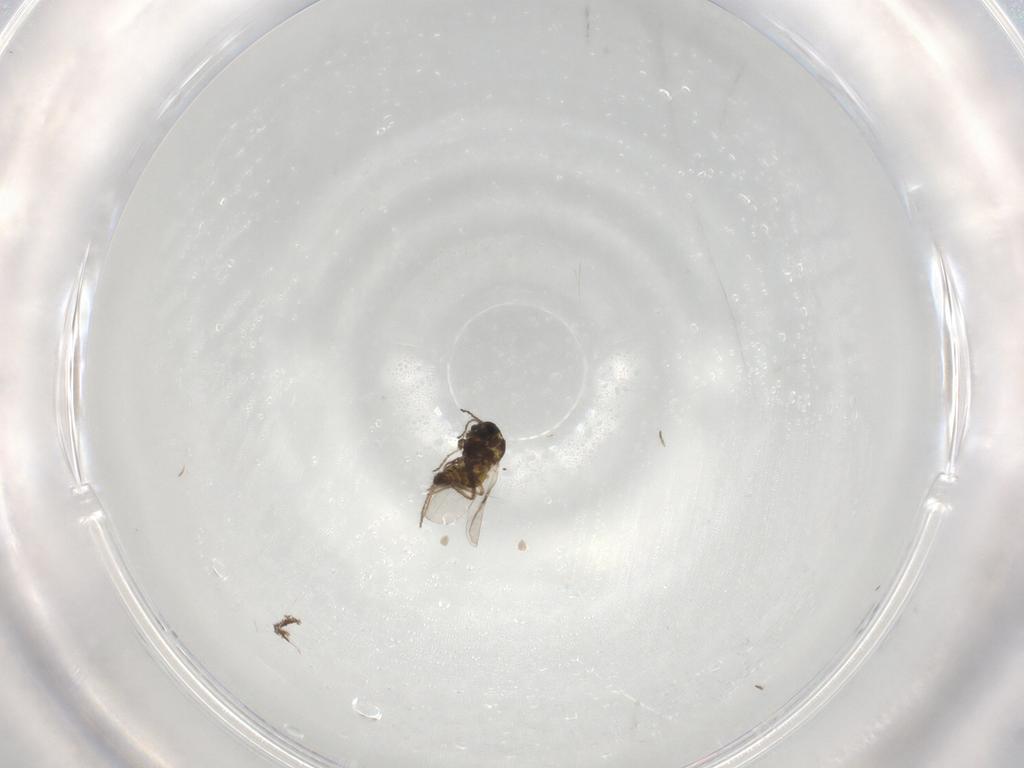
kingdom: Animalia
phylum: Arthropoda
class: Insecta
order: Diptera
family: Ceratopogonidae
